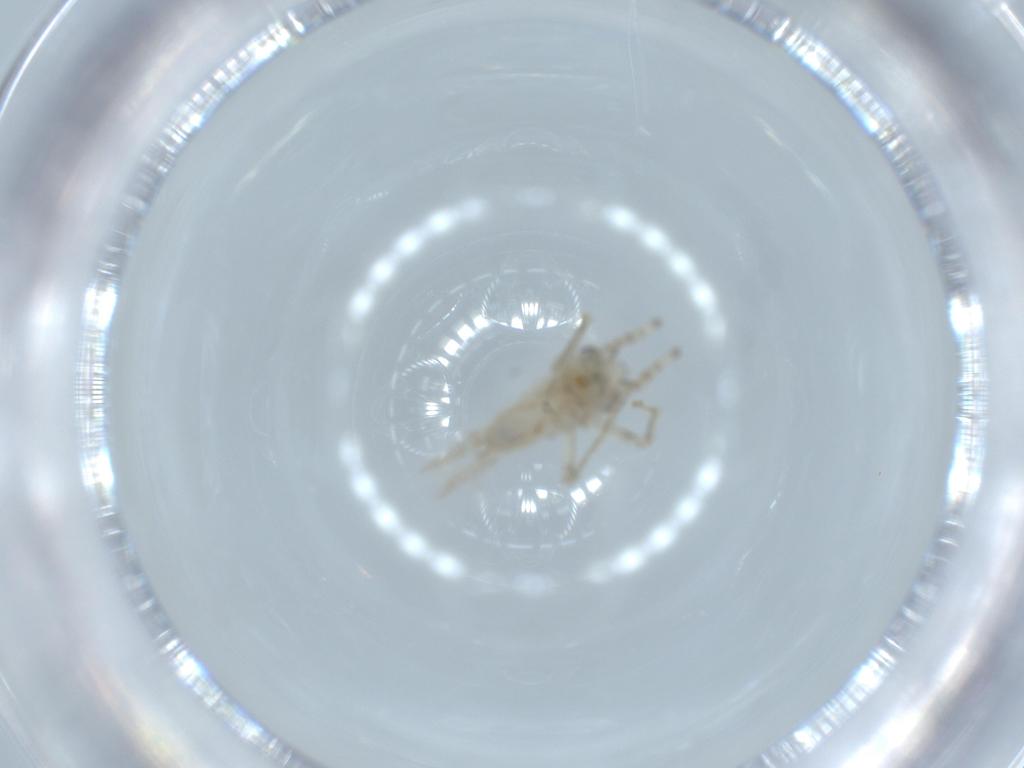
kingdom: Animalia
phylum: Arthropoda
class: Insecta
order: Orthoptera
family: Trigonidiidae
